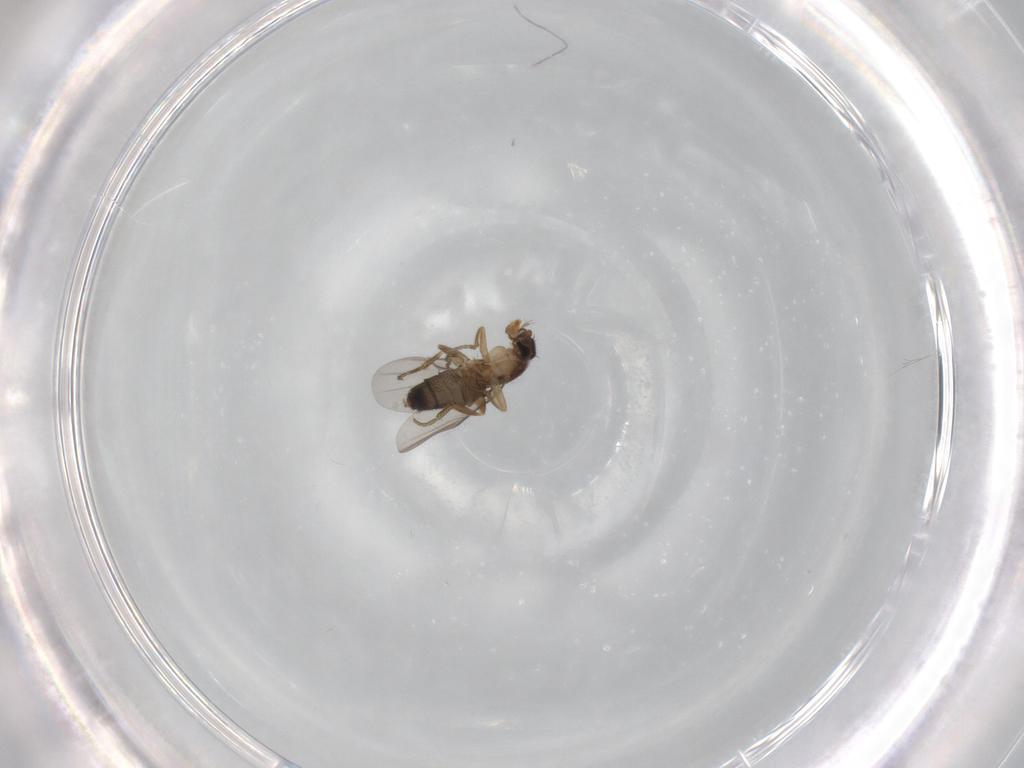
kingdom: Animalia
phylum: Arthropoda
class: Insecta
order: Diptera
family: Phoridae
